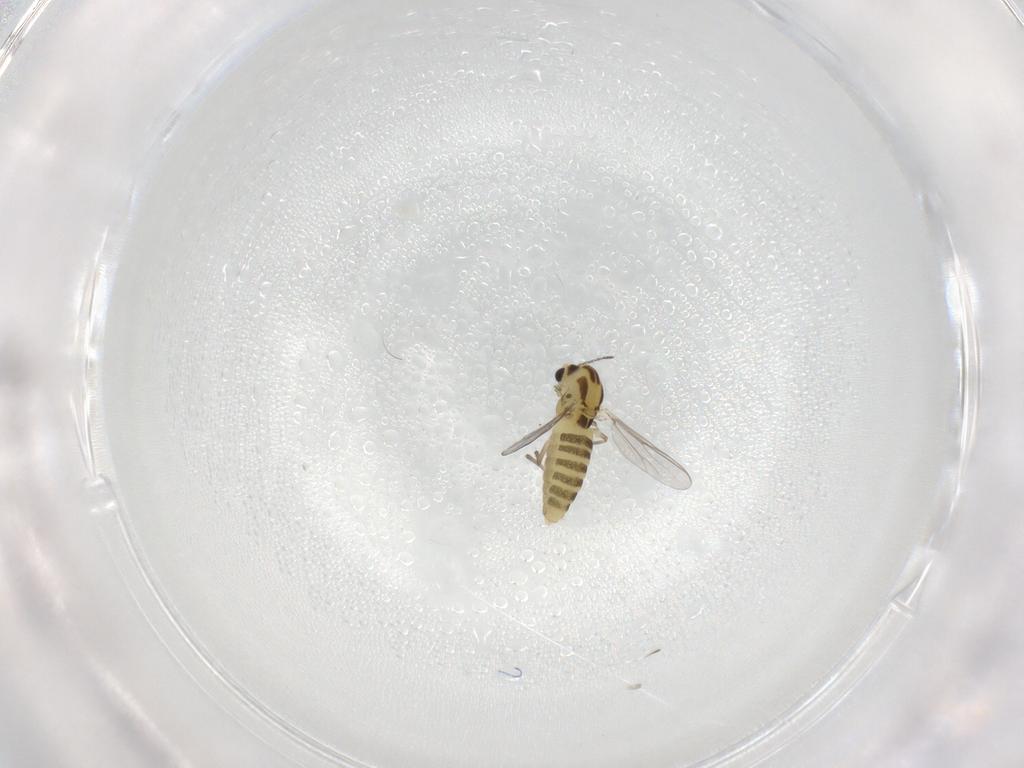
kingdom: Animalia
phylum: Arthropoda
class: Insecta
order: Diptera
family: Chironomidae
